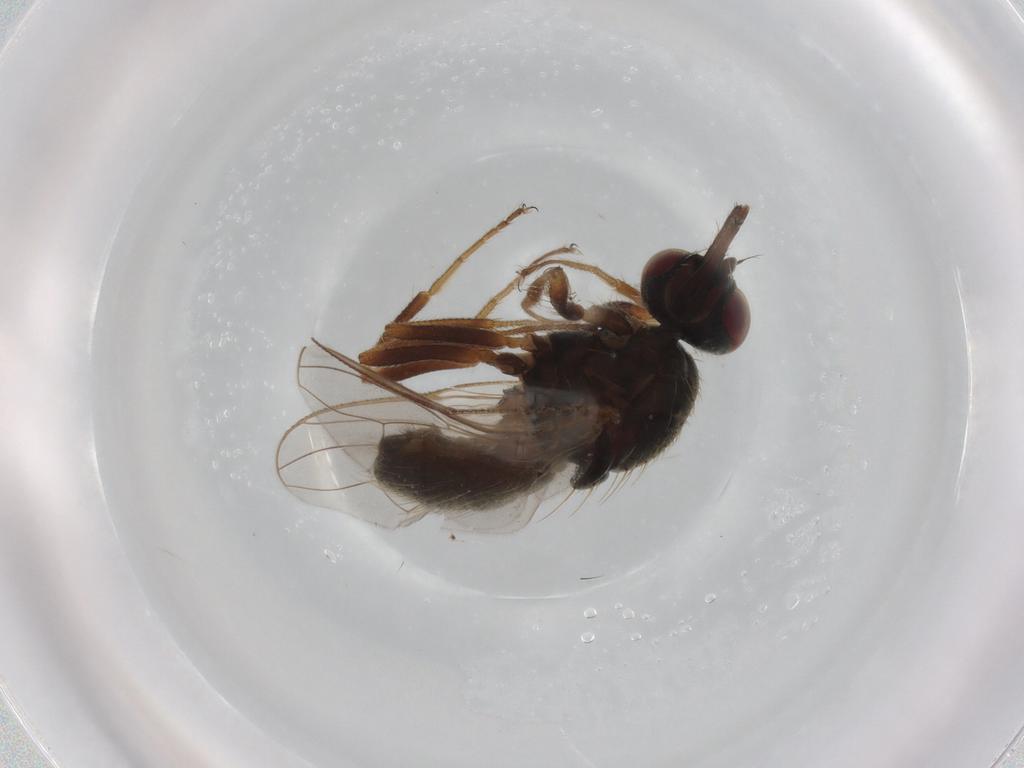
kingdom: Animalia
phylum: Arthropoda
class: Insecta
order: Diptera
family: Muscidae
